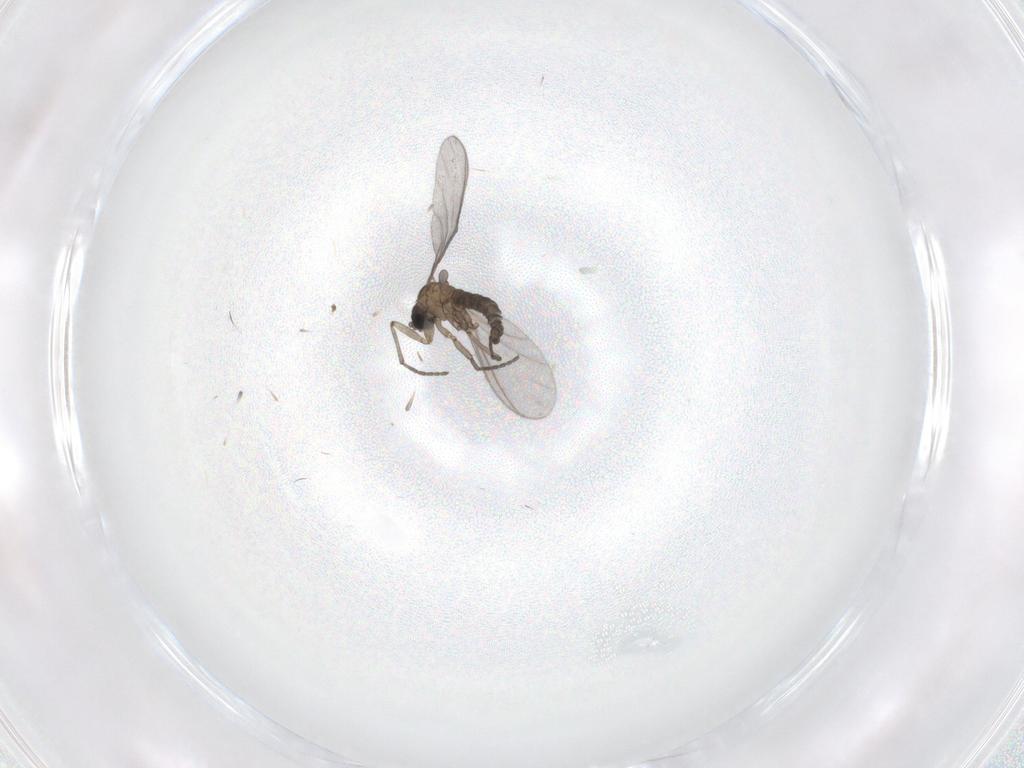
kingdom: Animalia
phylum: Arthropoda
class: Insecta
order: Diptera
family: Sciaridae
